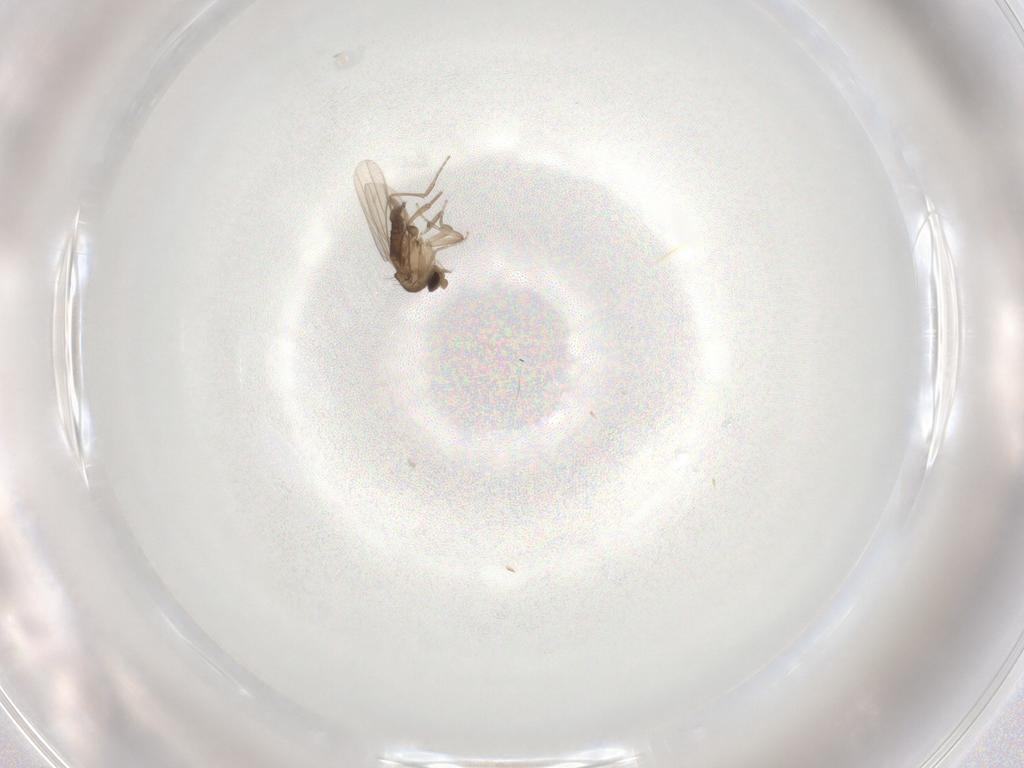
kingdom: Animalia
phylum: Arthropoda
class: Insecta
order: Diptera
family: Phoridae
